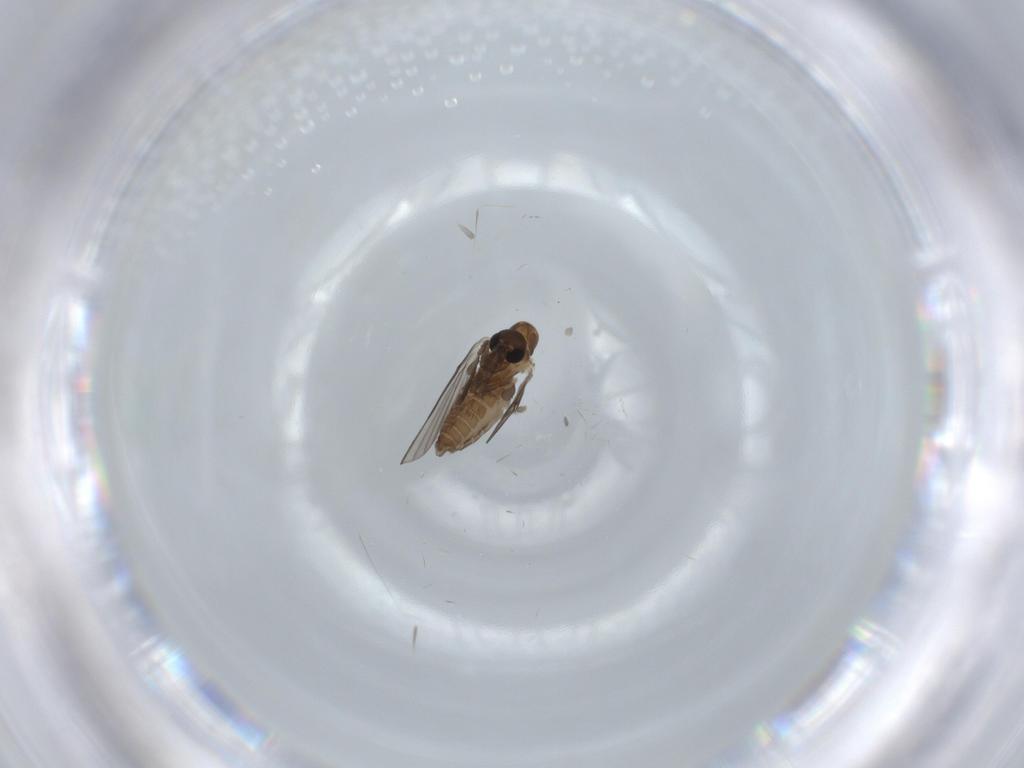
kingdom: Animalia
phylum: Arthropoda
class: Insecta
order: Diptera
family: Psychodidae
